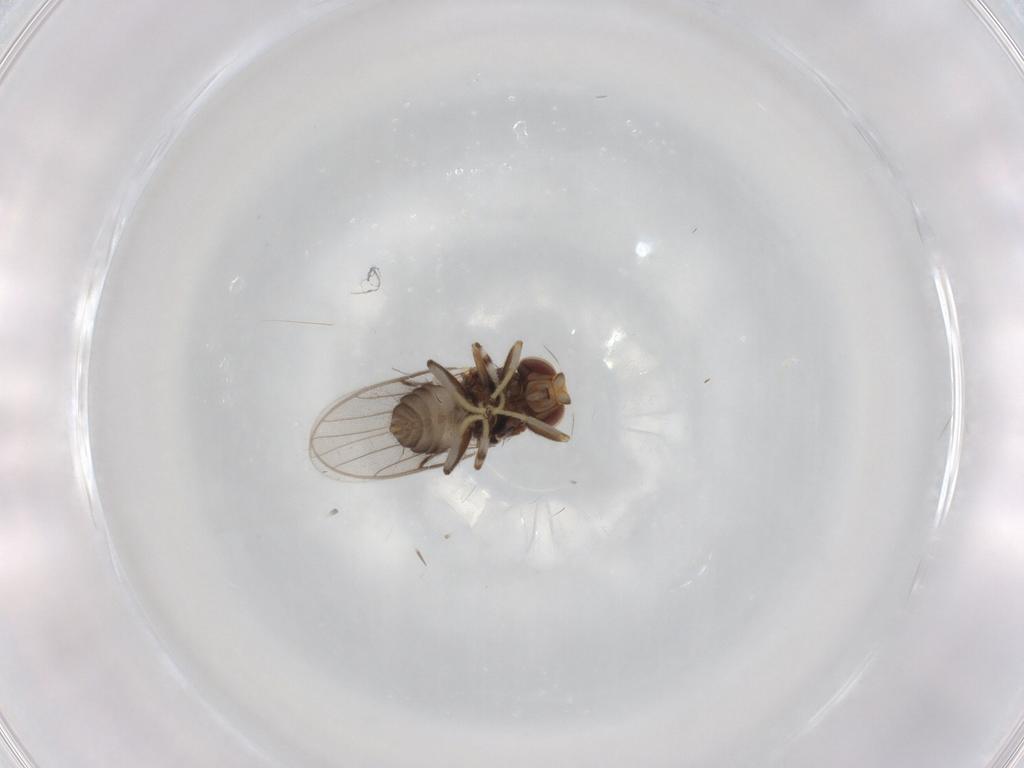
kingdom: Animalia
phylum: Arthropoda
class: Insecta
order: Diptera
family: Chloropidae
